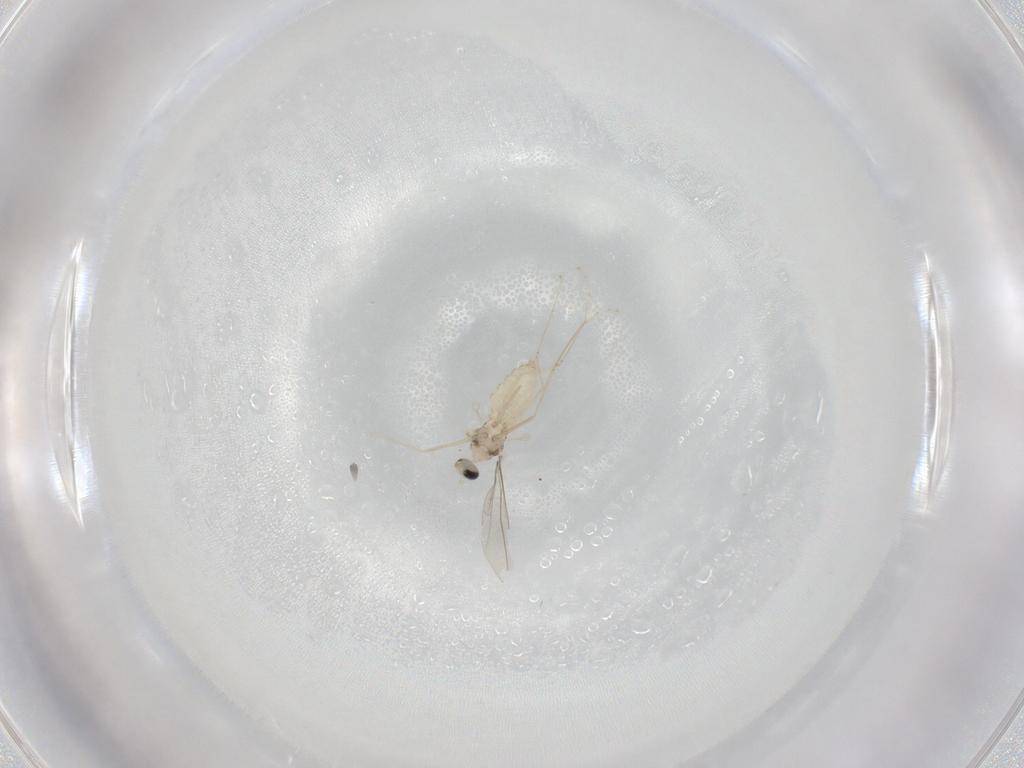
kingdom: Animalia
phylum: Arthropoda
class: Insecta
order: Diptera
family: Cecidomyiidae
